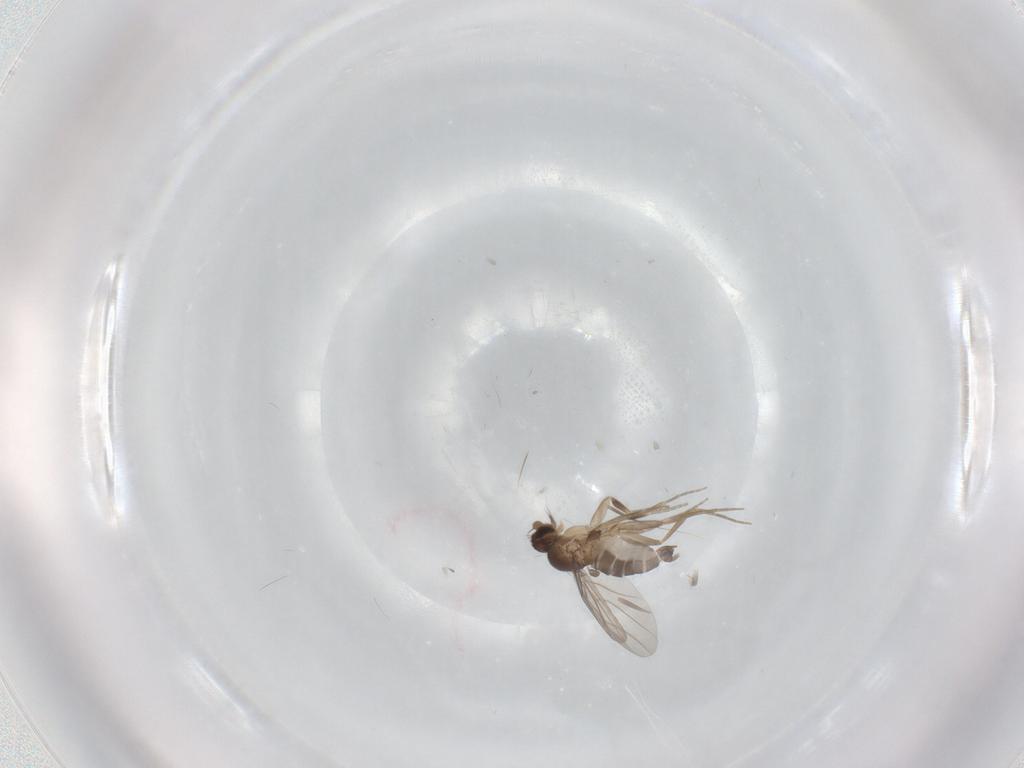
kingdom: Animalia
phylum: Arthropoda
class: Insecta
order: Diptera
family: Phoridae
